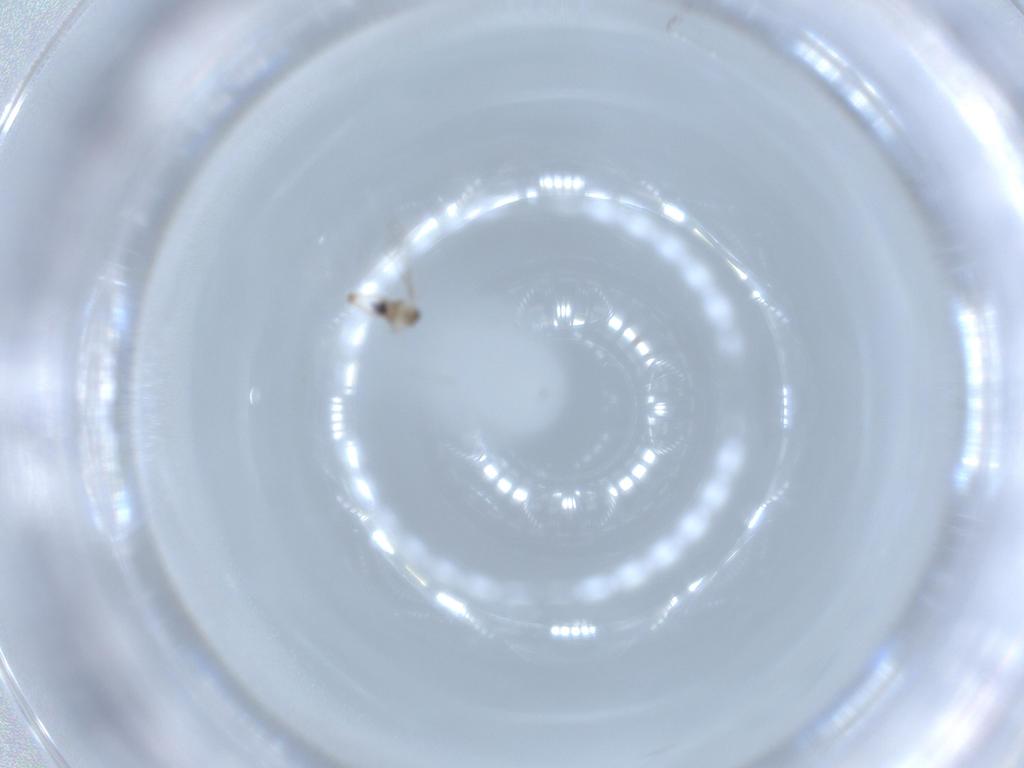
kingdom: Animalia
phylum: Arthropoda
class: Insecta
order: Diptera
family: Cecidomyiidae
